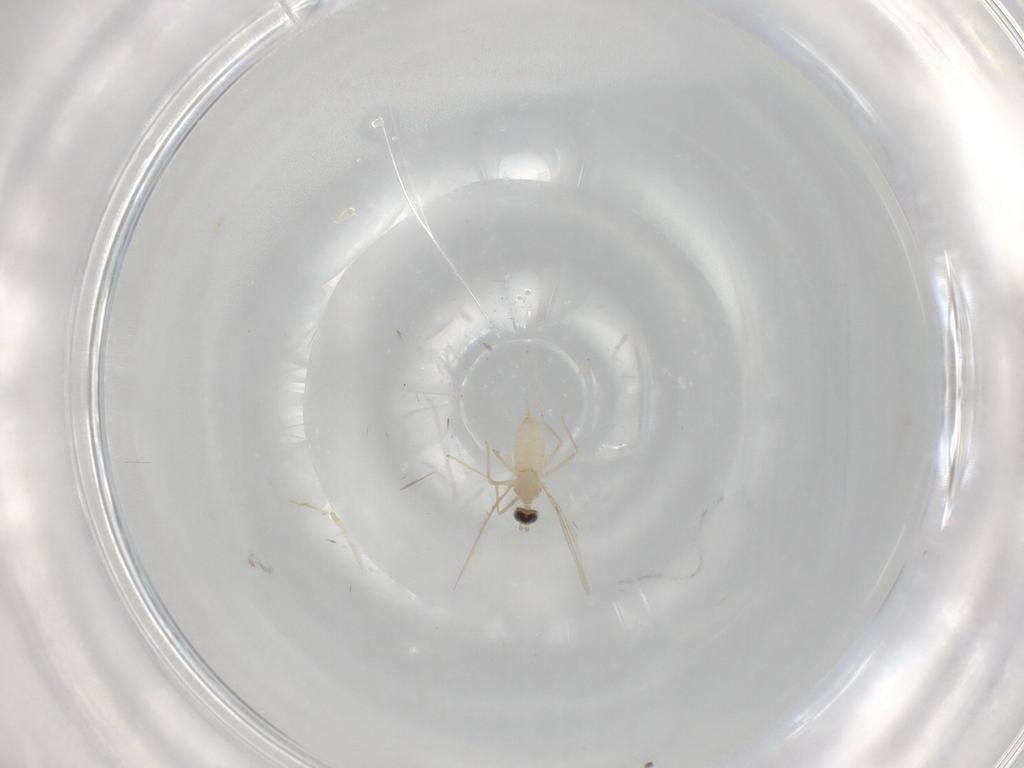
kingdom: Animalia
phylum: Arthropoda
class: Insecta
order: Diptera
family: Cecidomyiidae
